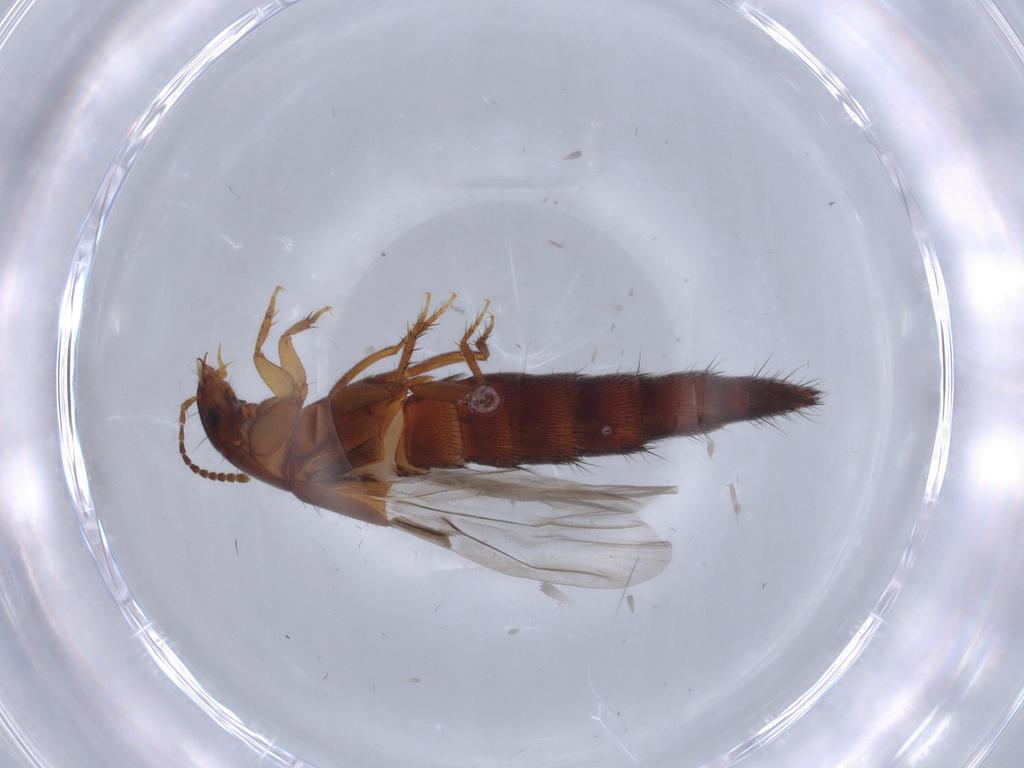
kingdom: Animalia
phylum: Arthropoda
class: Insecta
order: Coleoptera
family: Staphylinidae
